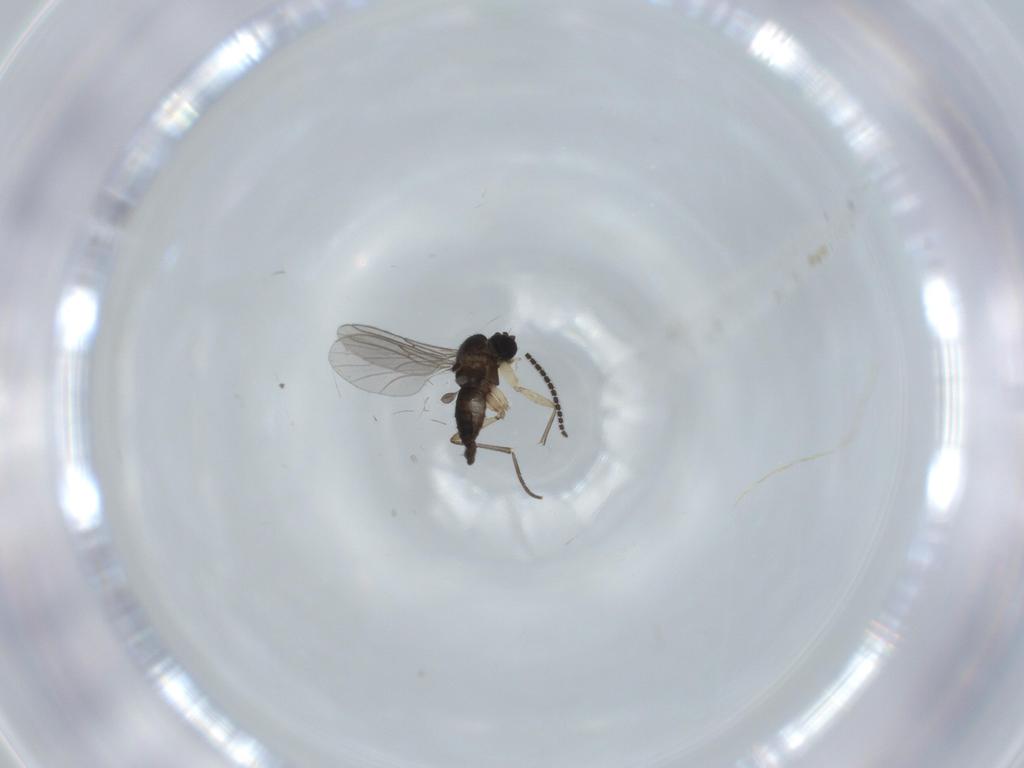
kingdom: Animalia
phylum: Arthropoda
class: Insecta
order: Diptera
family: Sciaridae
